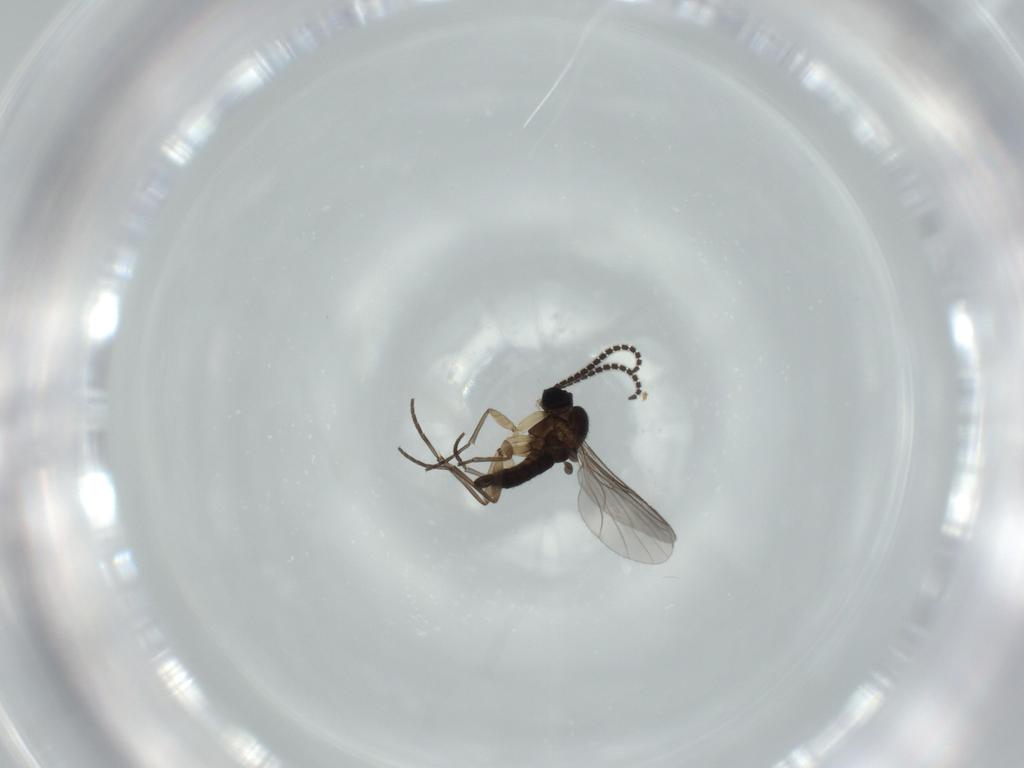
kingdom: Animalia
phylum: Arthropoda
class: Insecta
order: Diptera
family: Sciaridae
